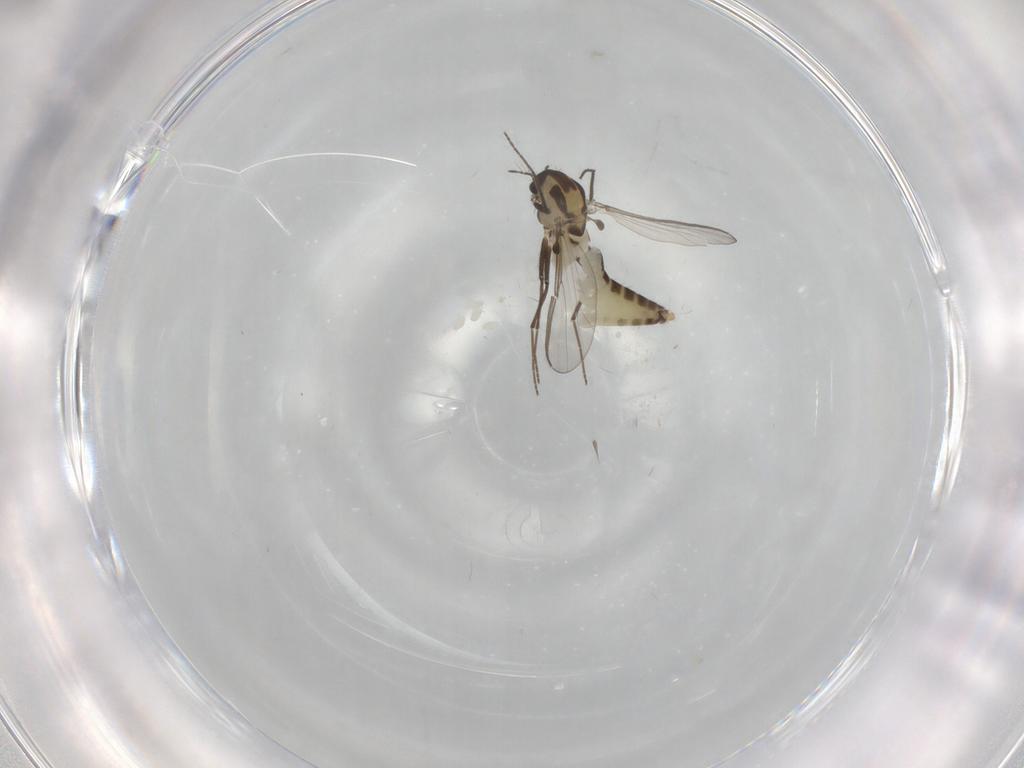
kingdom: Animalia
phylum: Arthropoda
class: Insecta
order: Diptera
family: Chironomidae
